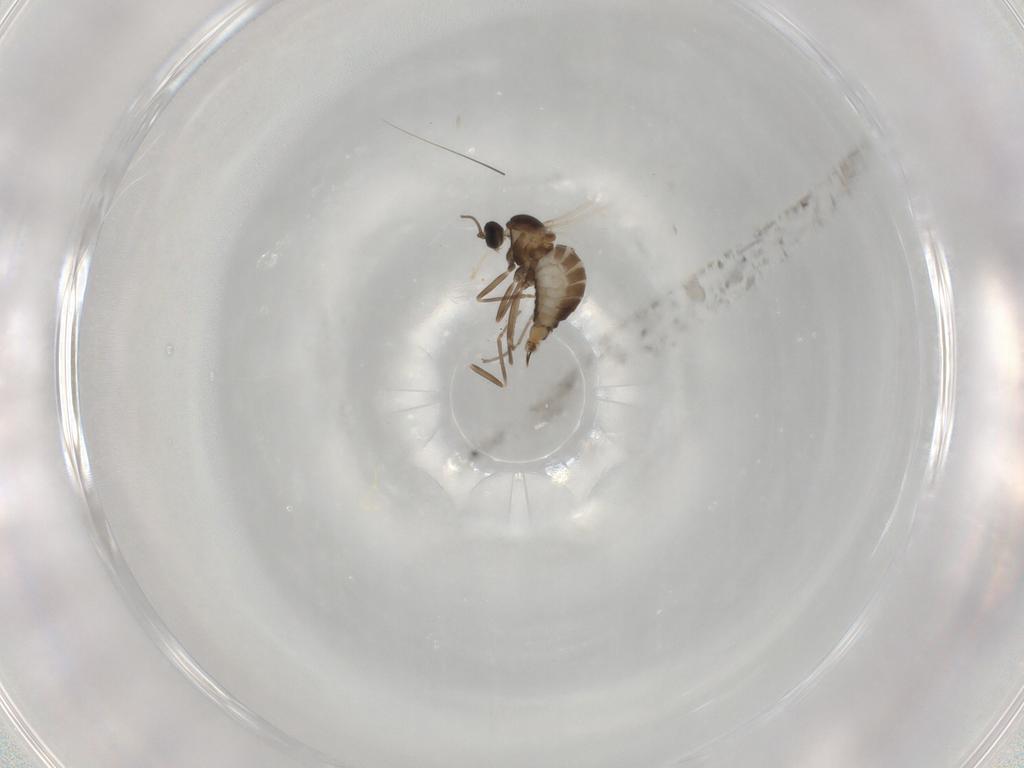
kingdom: Animalia
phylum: Arthropoda
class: Insecta
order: Diptera
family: Cecidomyiidae
